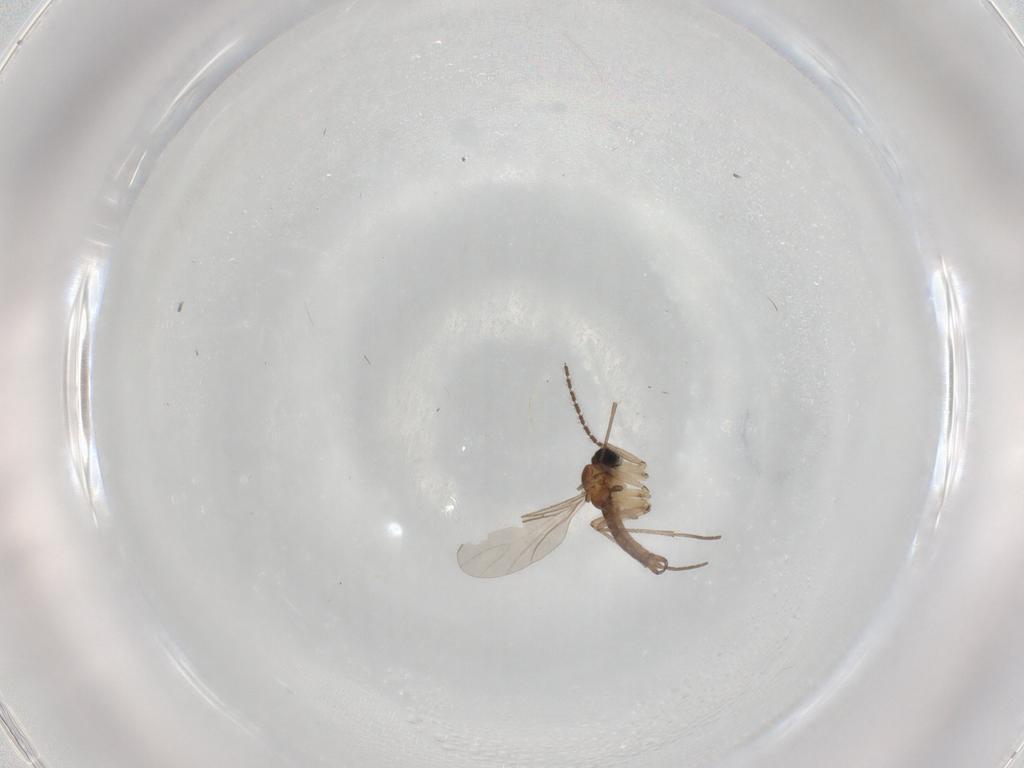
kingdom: Animalia
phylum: Arthropoda
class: Insecta
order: Diptera
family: Sciaridae
